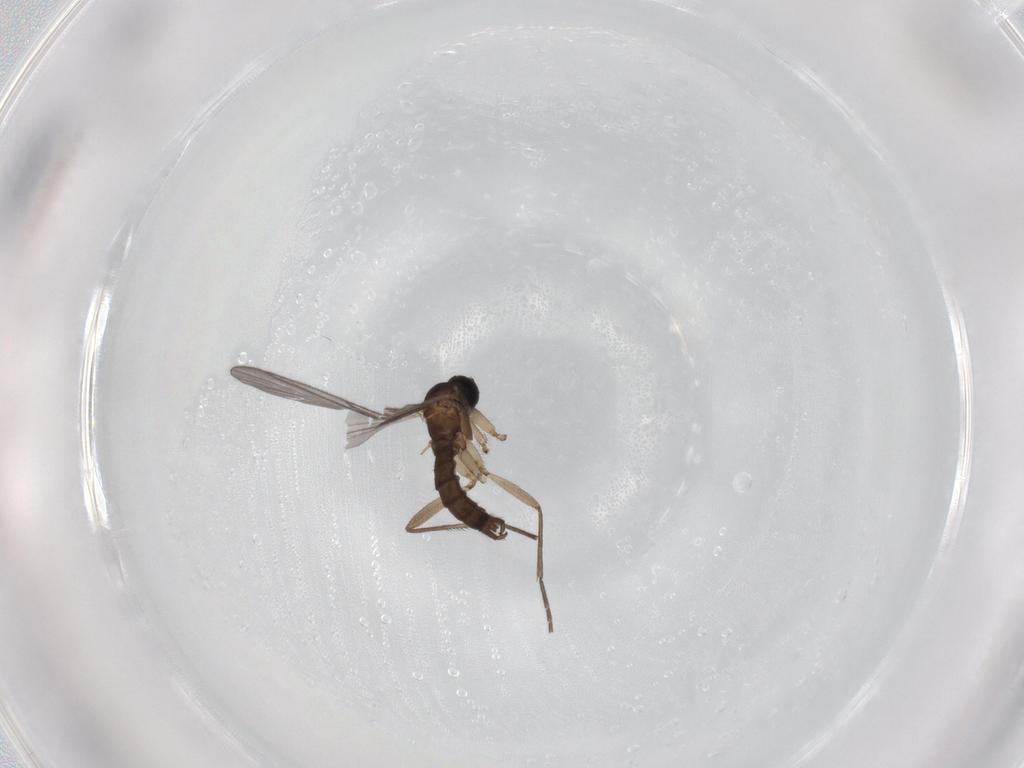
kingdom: Animalia
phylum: Arthropoda
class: Insecta
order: Diptera
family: Sciaridae
